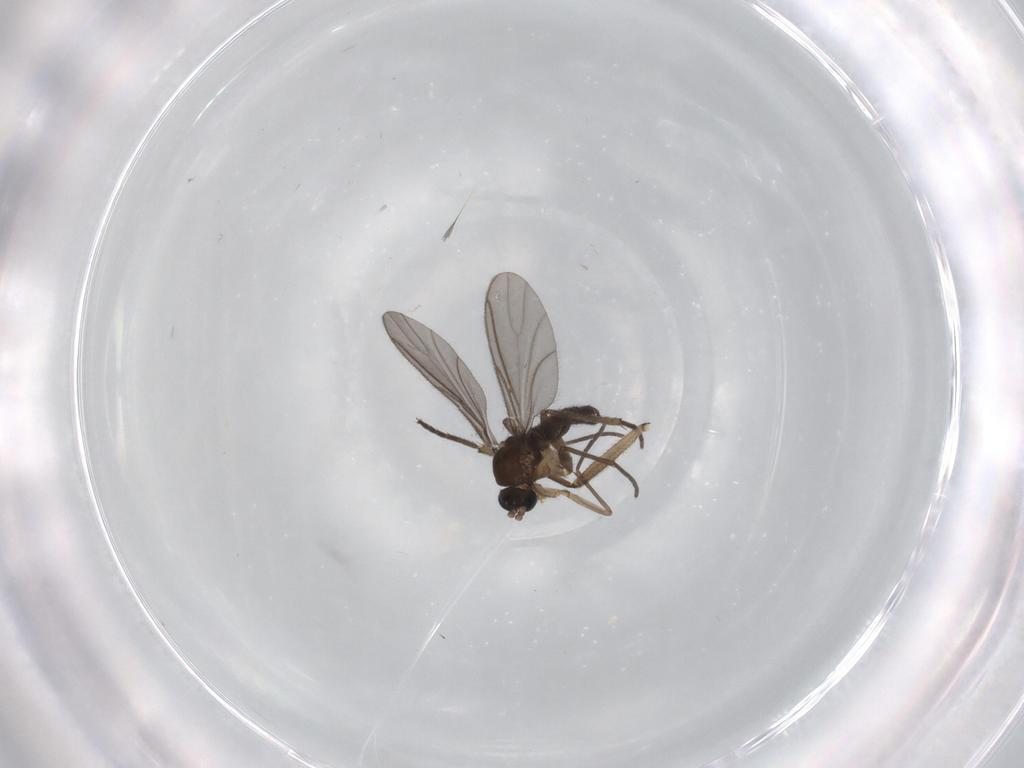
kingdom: Animalia
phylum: Arthropoda
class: Insecta
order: Diptera
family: Sciaridae
